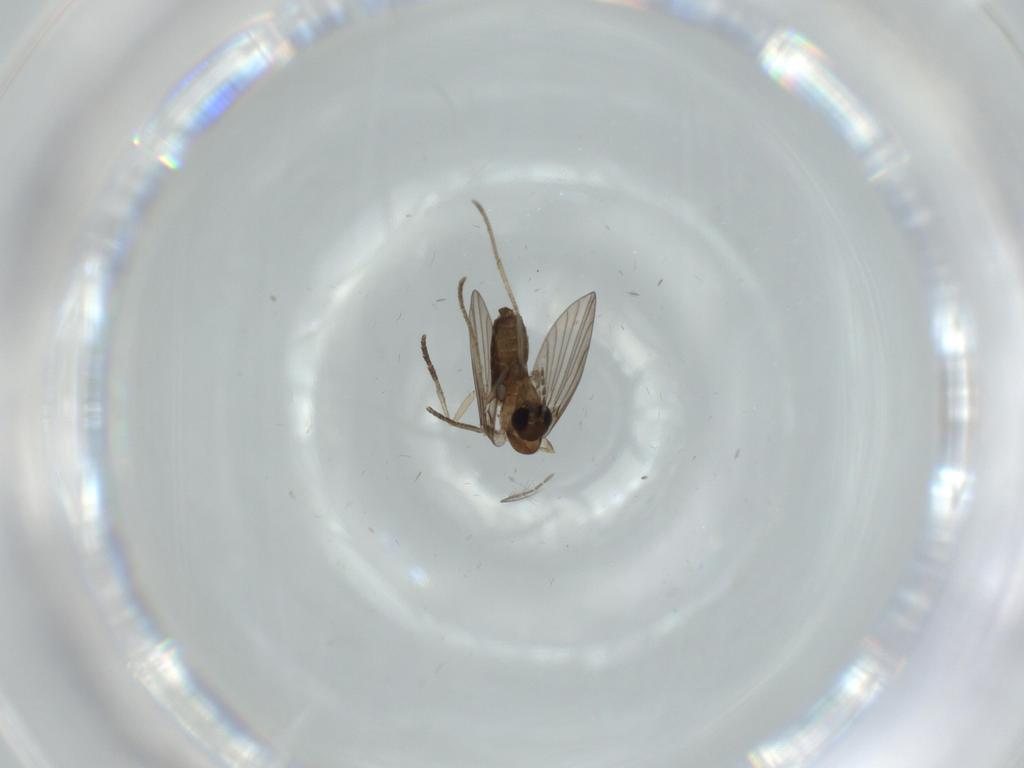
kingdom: Animalia
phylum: Arthropoda
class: Insecta
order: Diptera
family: Ceratopogonidae
